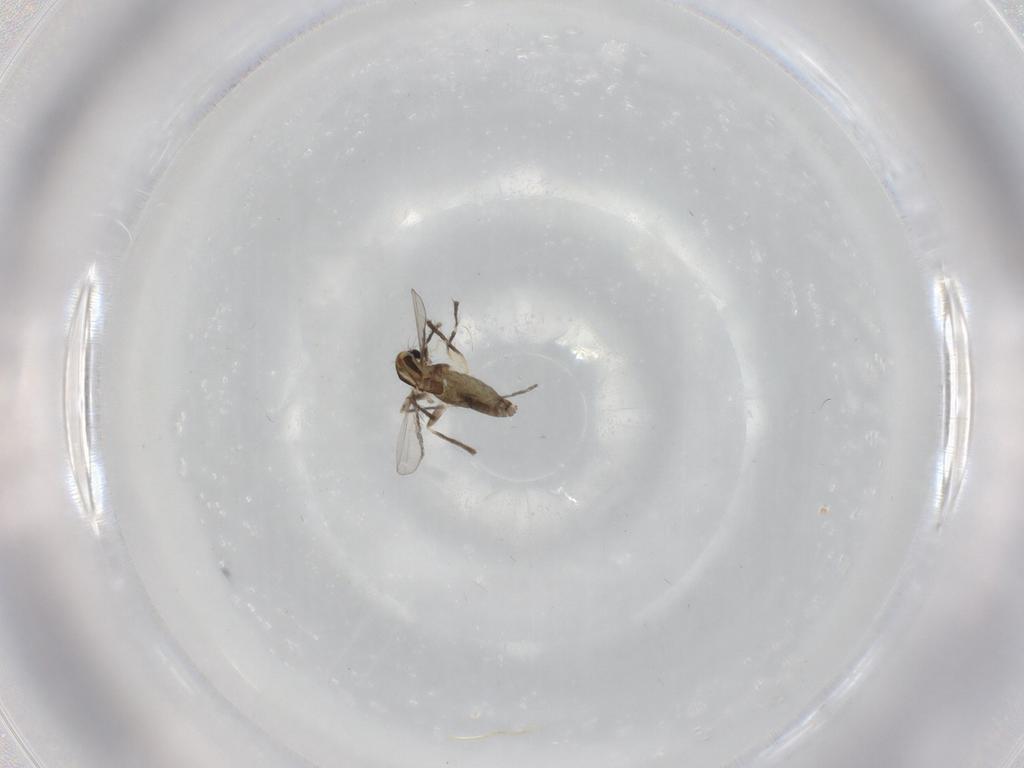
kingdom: Animalia
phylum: Arthropoda
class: Insecta
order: Diptera
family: Chironomidae
